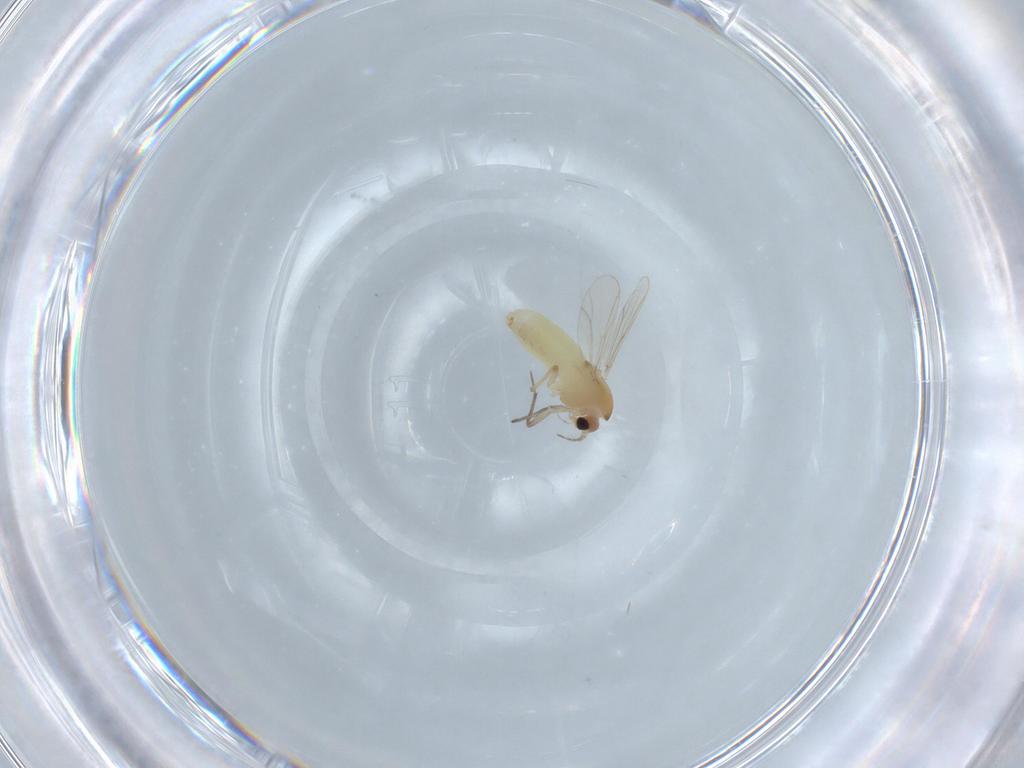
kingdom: Animalia
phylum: Arthropoda
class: Insecta
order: Diptera
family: Chironomidae
